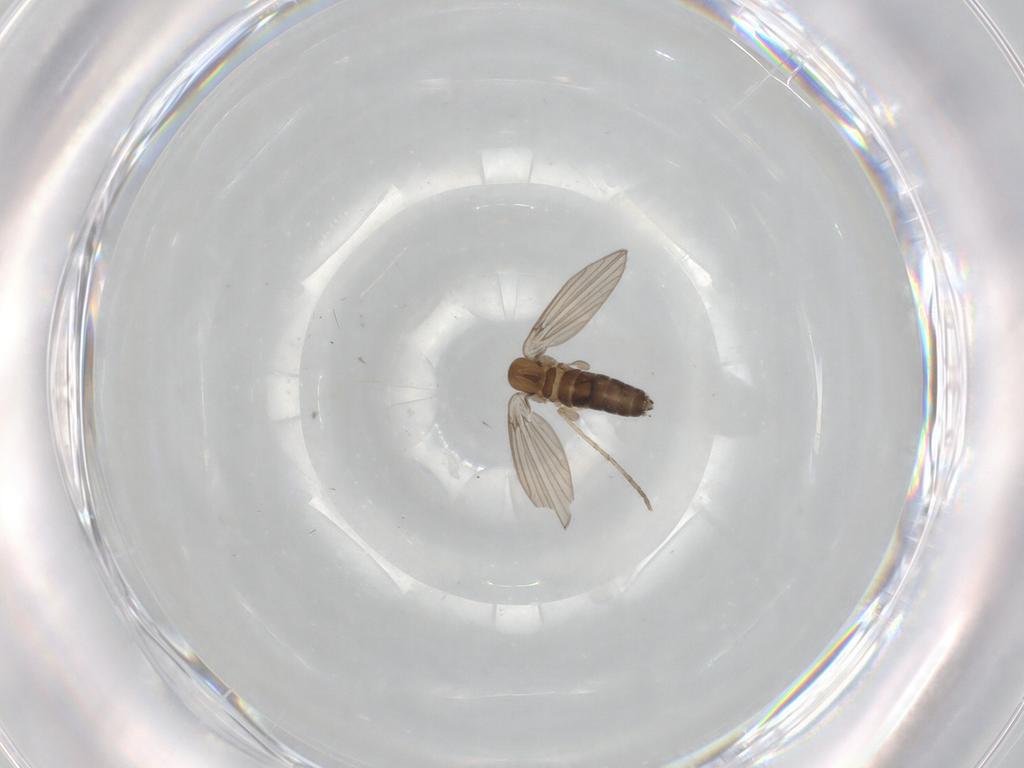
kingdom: Animalia
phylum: Arthropoda
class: Insecta
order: Diptera
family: Psychodidae
